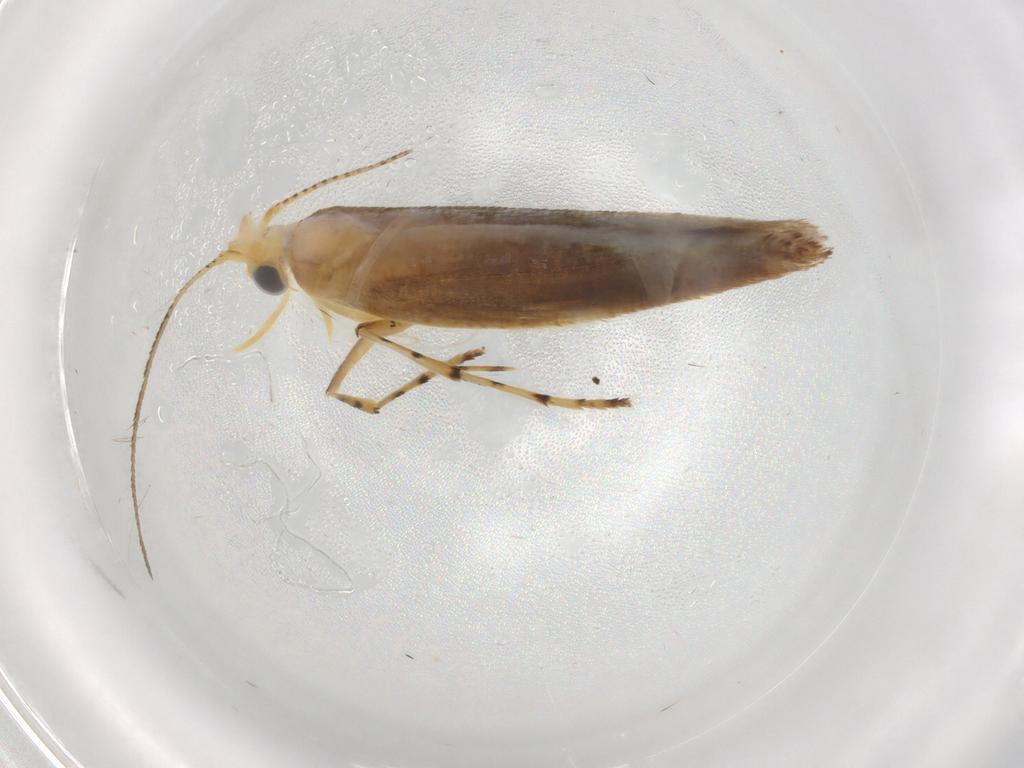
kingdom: Animalia
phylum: Arthropoda
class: Insecta
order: Lepidoptera
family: Argyresthiidae
